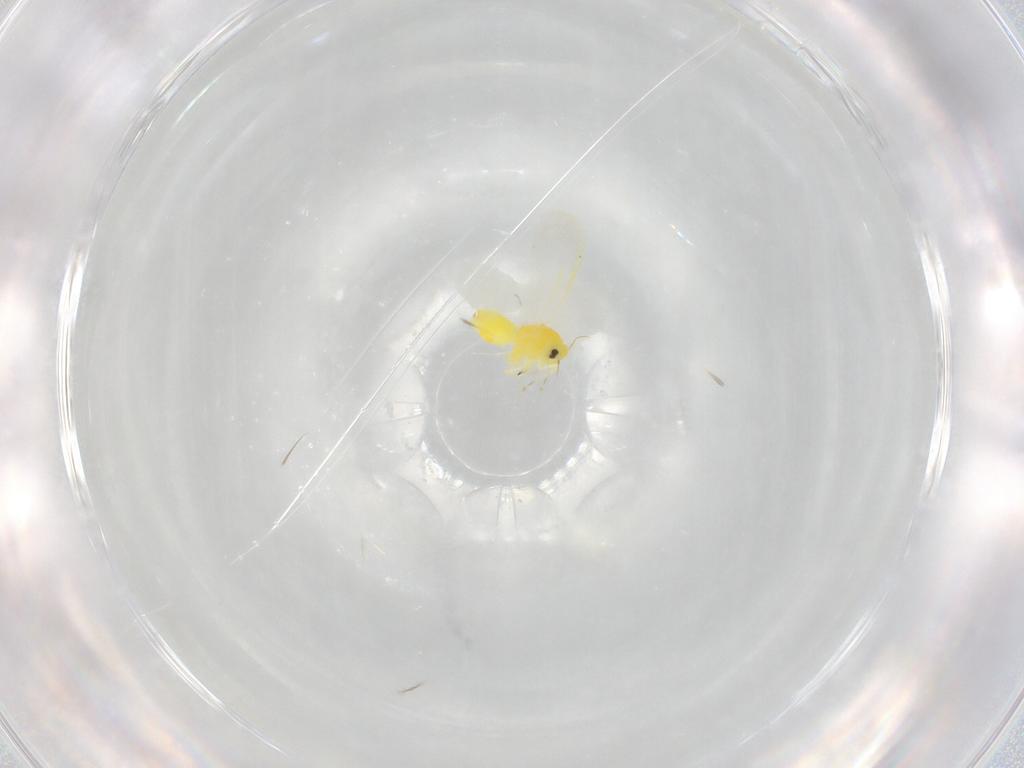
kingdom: Animalia
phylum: Arthropoda
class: Insecta
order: Hemiptera
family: Aleyrodidae
